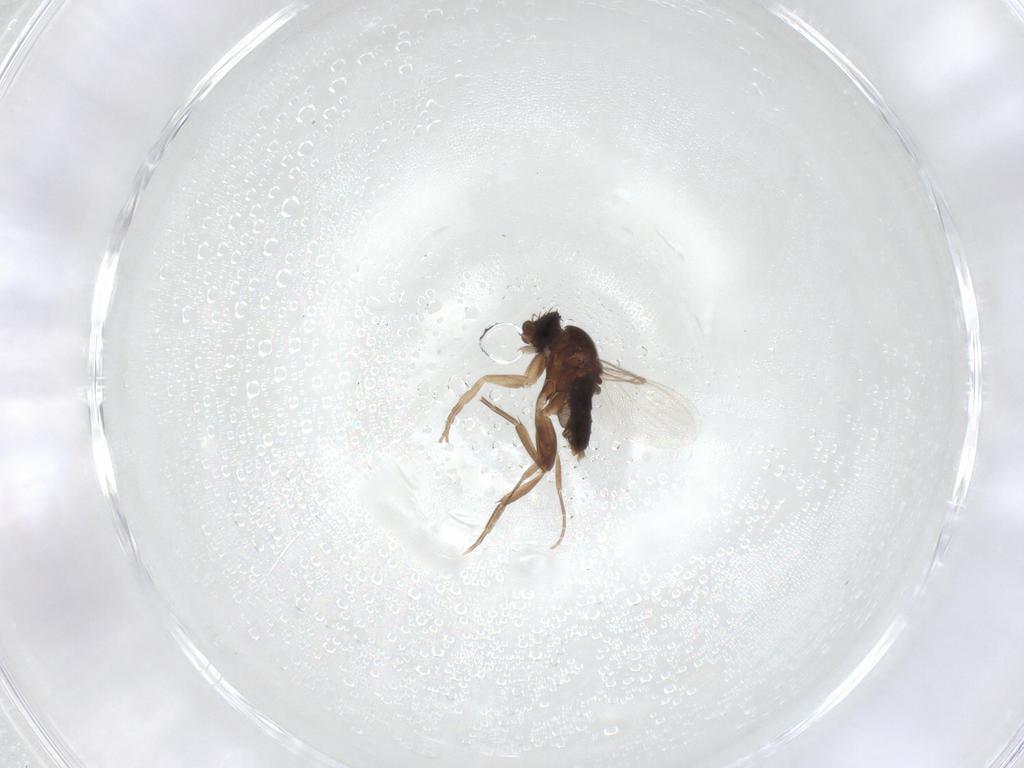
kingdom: Animalia
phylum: Arthropoda
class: Insecta
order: Diptera
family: Phoridae
